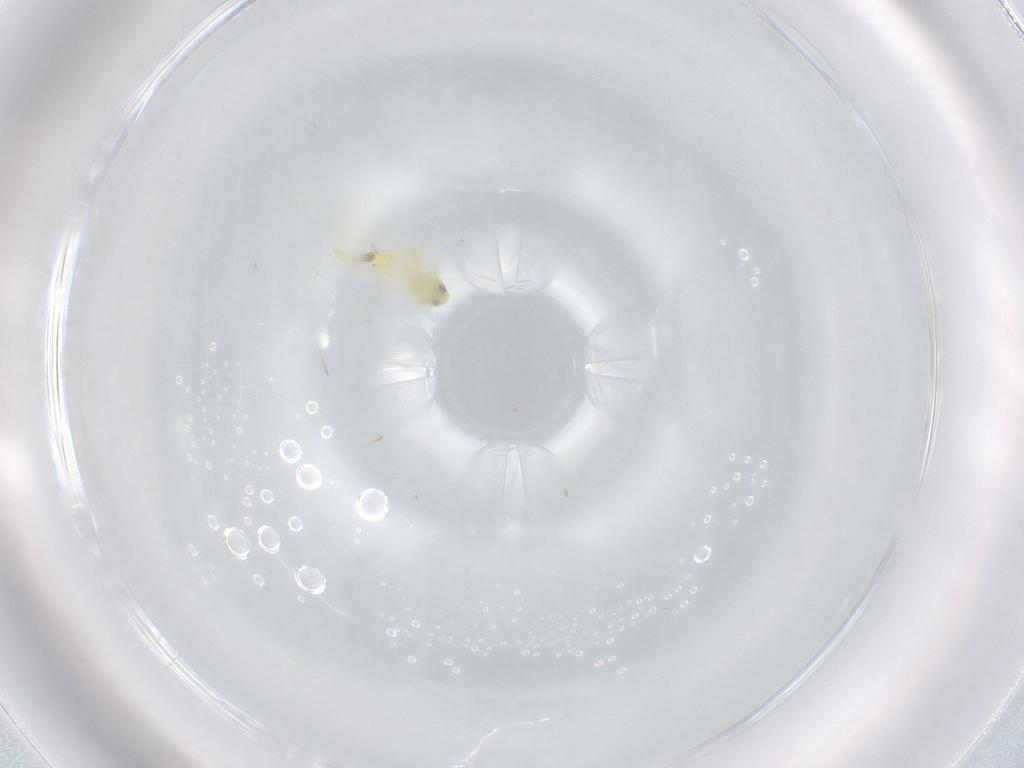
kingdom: Animalia
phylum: Arthropoda
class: Insecta
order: Hemiptera
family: Aleyrodidae
